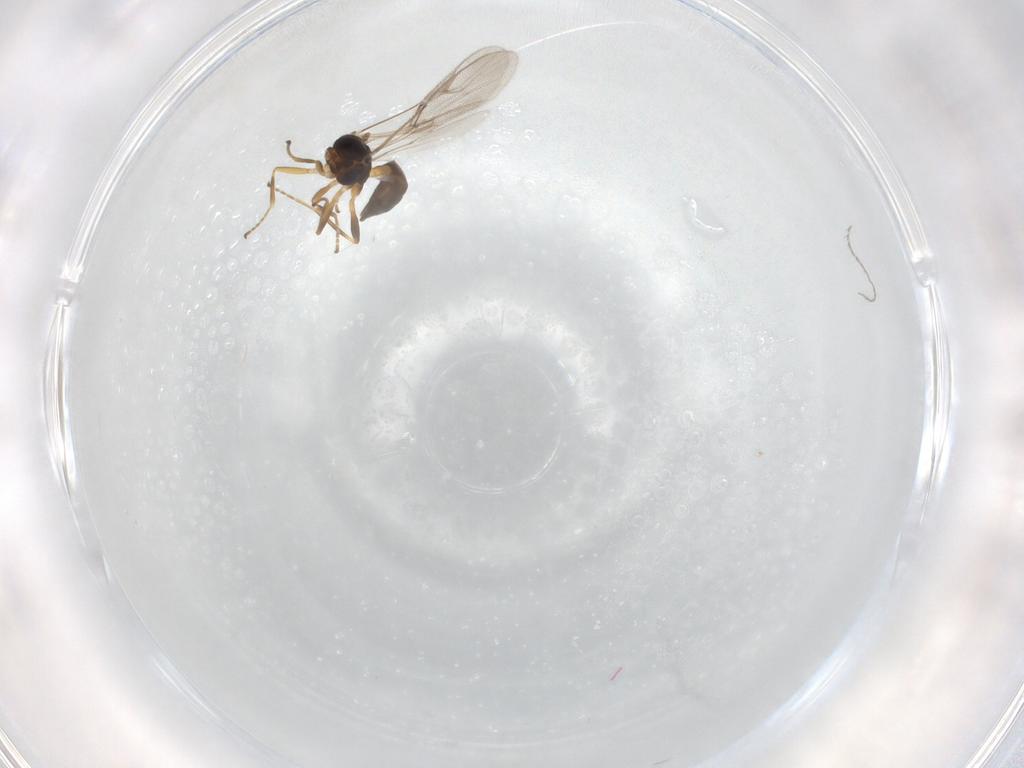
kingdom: Animalia
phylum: Arthropoda
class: Insecta
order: Hymenoptera
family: Braconidae
